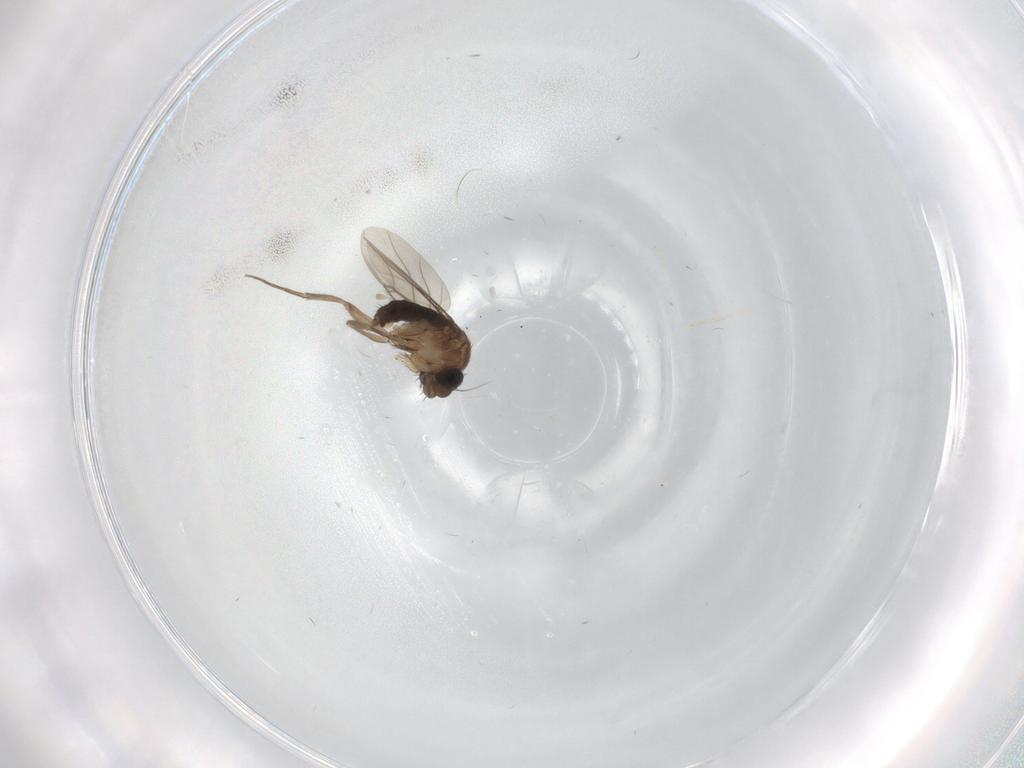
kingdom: Animalia
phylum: Arthropoda
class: Insecta
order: Diptera
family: Phoridae
